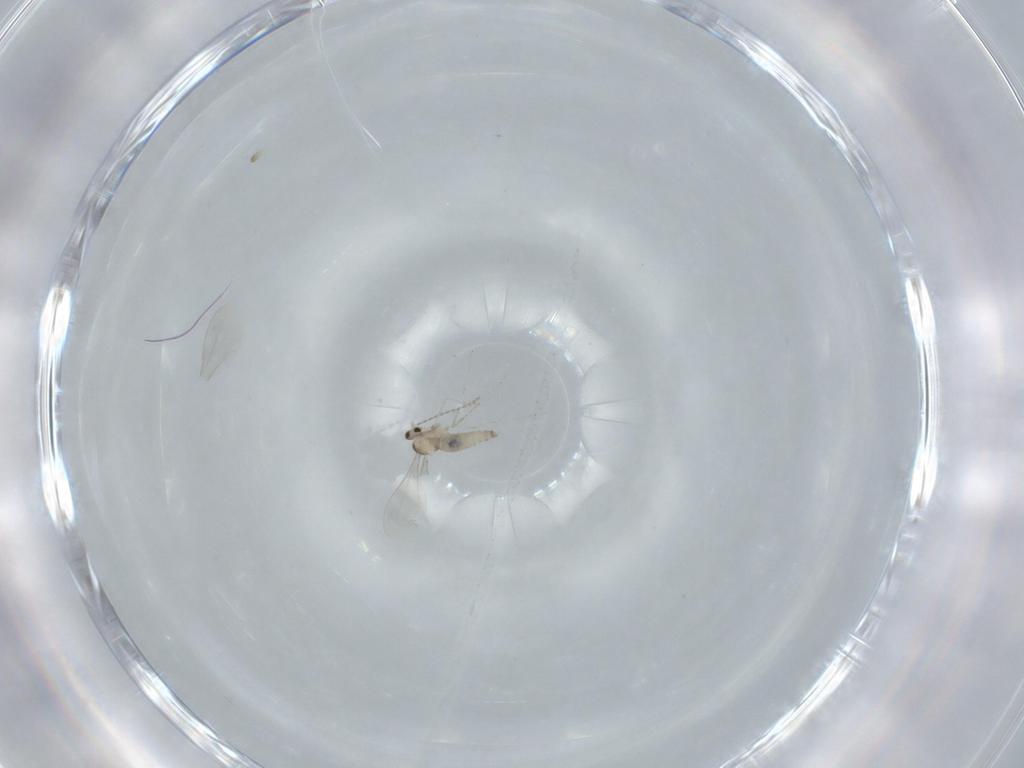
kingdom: Animalia
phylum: Arthropoda
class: Insecta
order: Diptera
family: Cecidomyiidae
